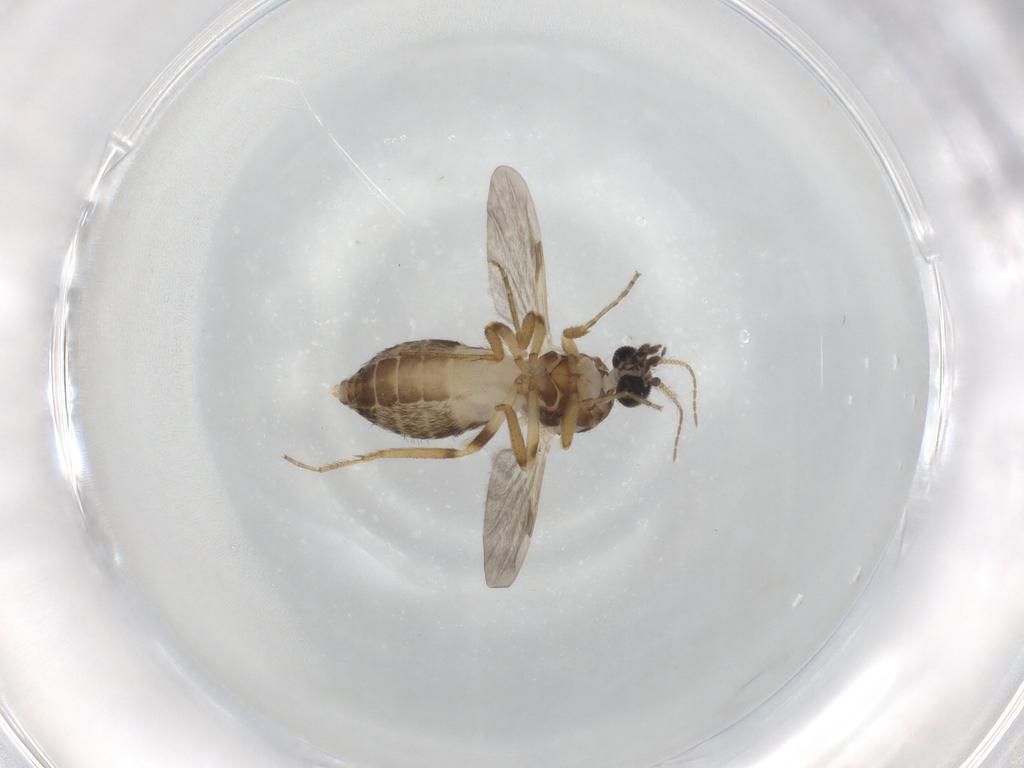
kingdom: Animalia
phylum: Arthropoda
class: Insecta
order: Diptera
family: Ceratopogonidae
